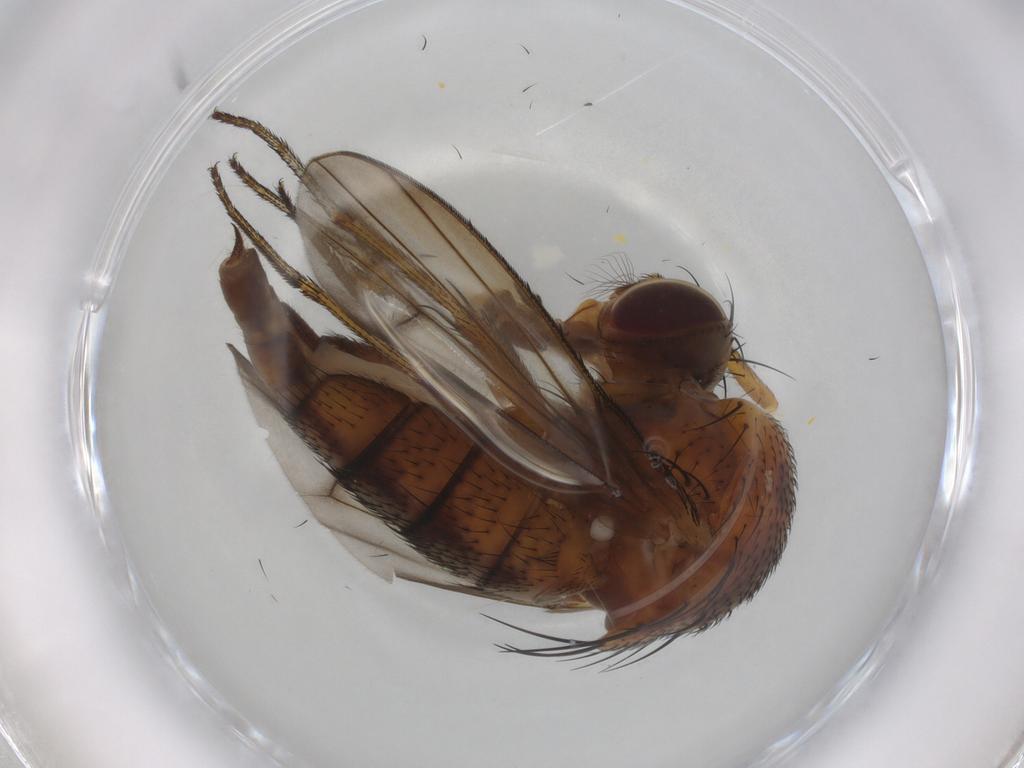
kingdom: Animalia
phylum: Arthropoda
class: Insecta
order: Diptera
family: Curtonotidae
